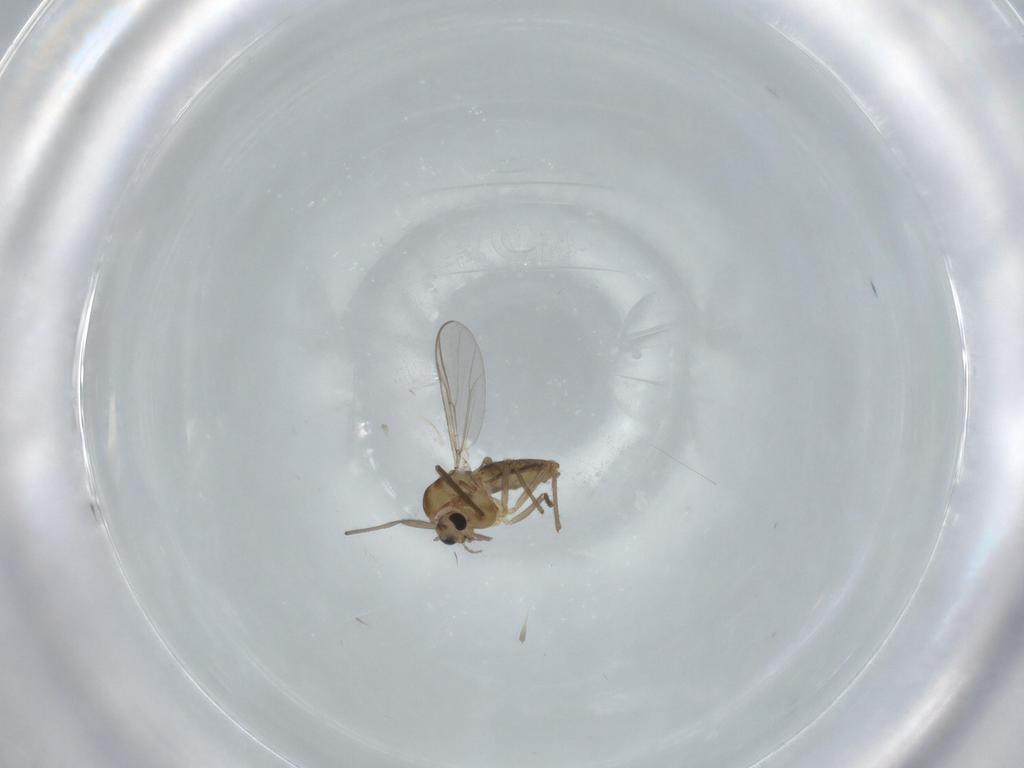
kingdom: Animalia
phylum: Arthropoda
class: Insecta
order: Diptera
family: Chironomidae
